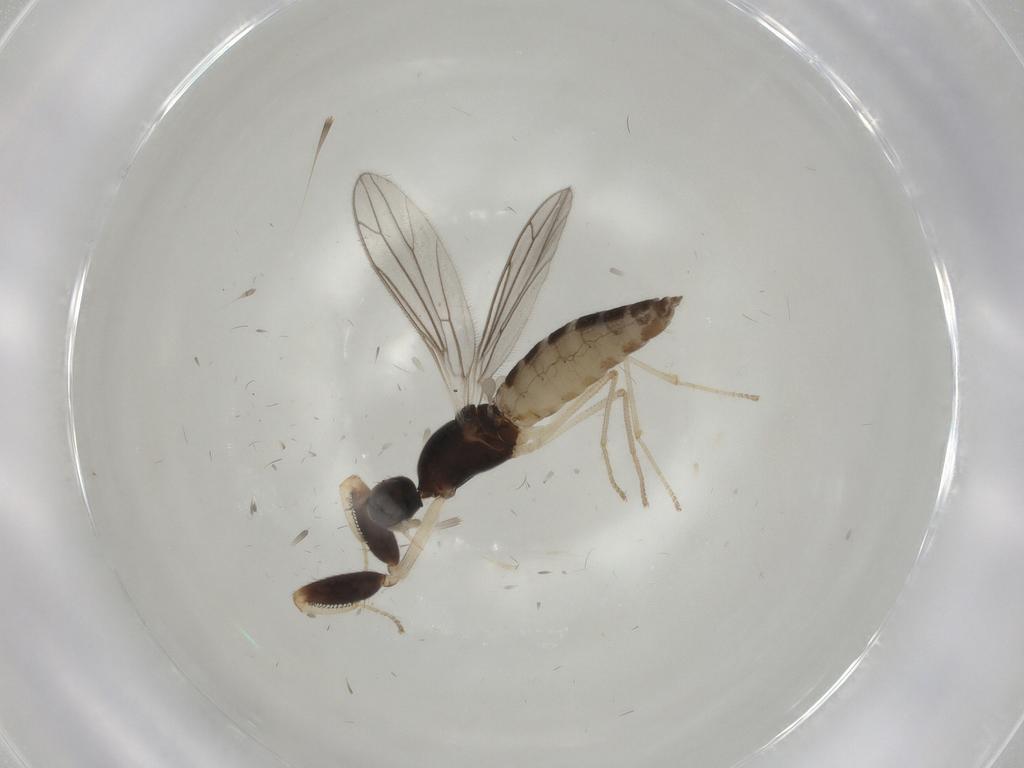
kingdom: Animalia
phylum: Arthropoda
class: Insecta
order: Diptera
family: Empididae
